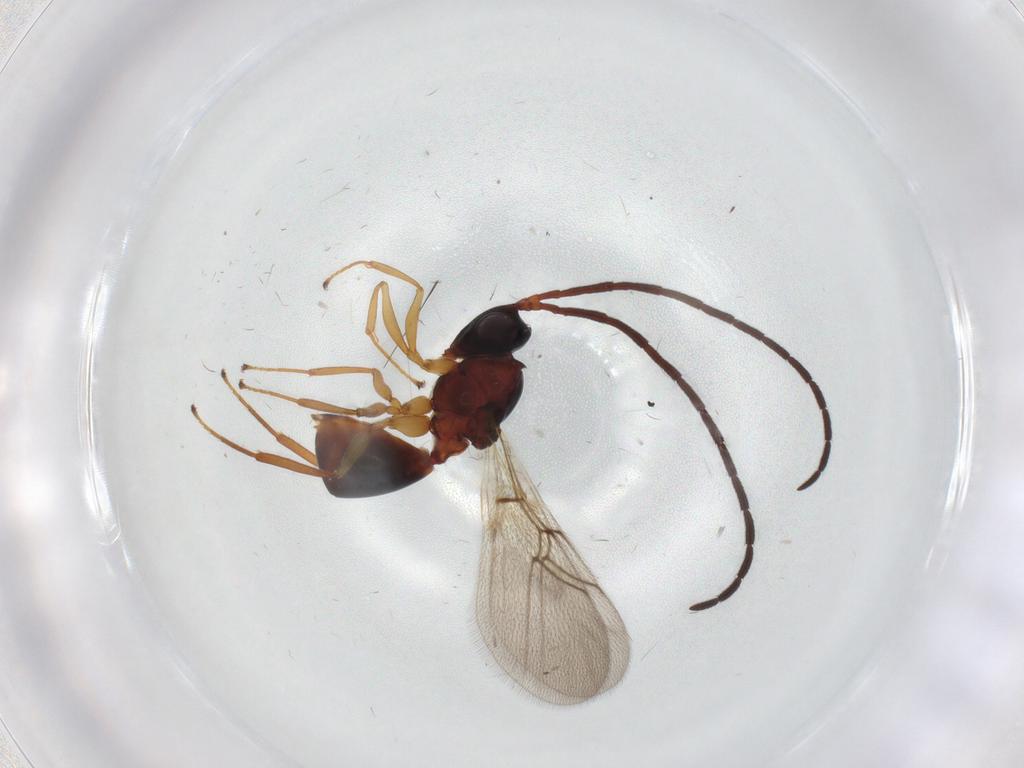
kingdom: Animalia
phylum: Arthropoda
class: Insecta
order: Hymenoptera
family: Figitidae
